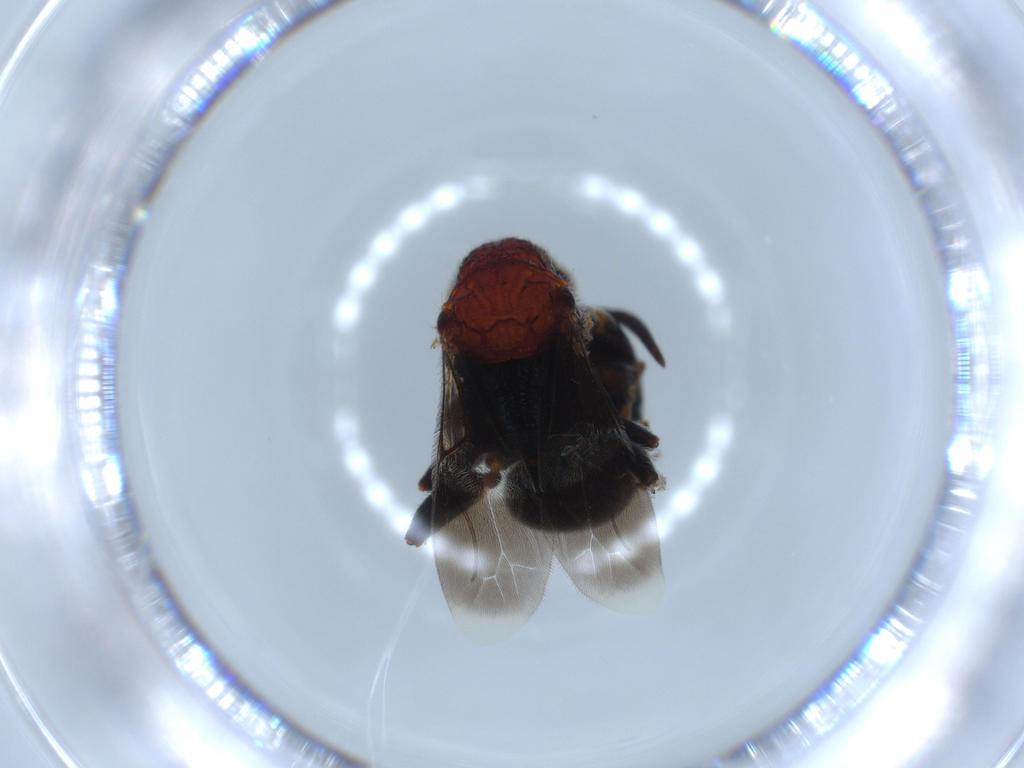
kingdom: Animalia
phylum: Arthropoda
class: Insecta
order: Hymenoptera
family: Bethylidae
